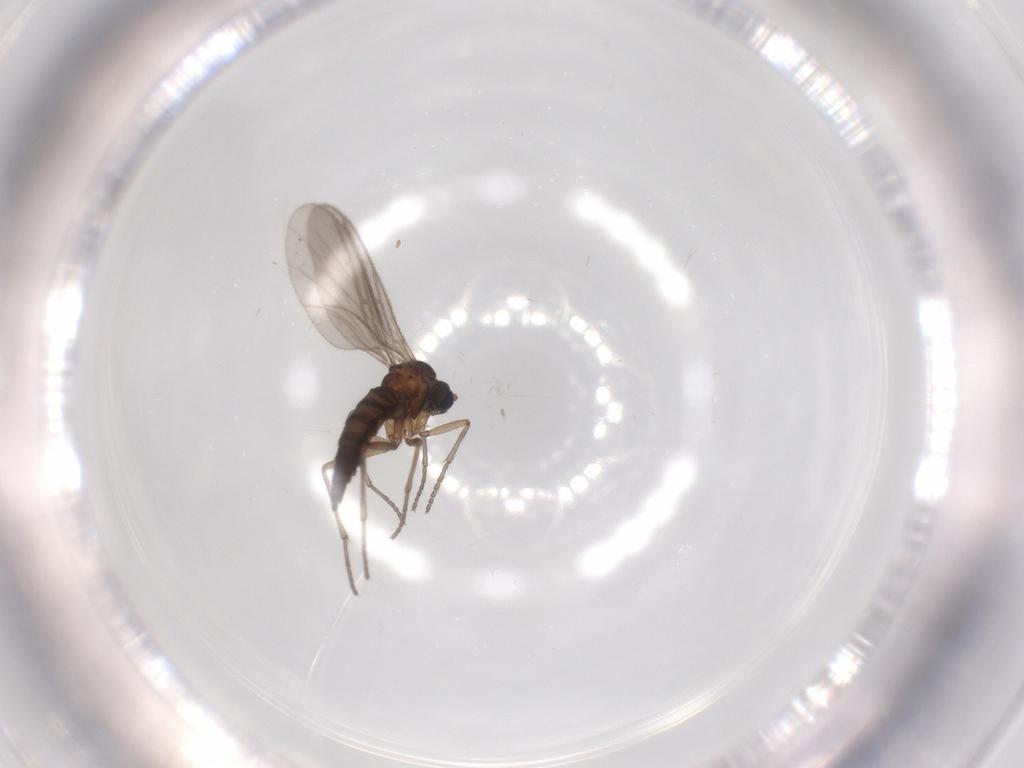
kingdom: Animalia
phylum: Arthropoda
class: Insecta
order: Diptera
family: Sciaridae
